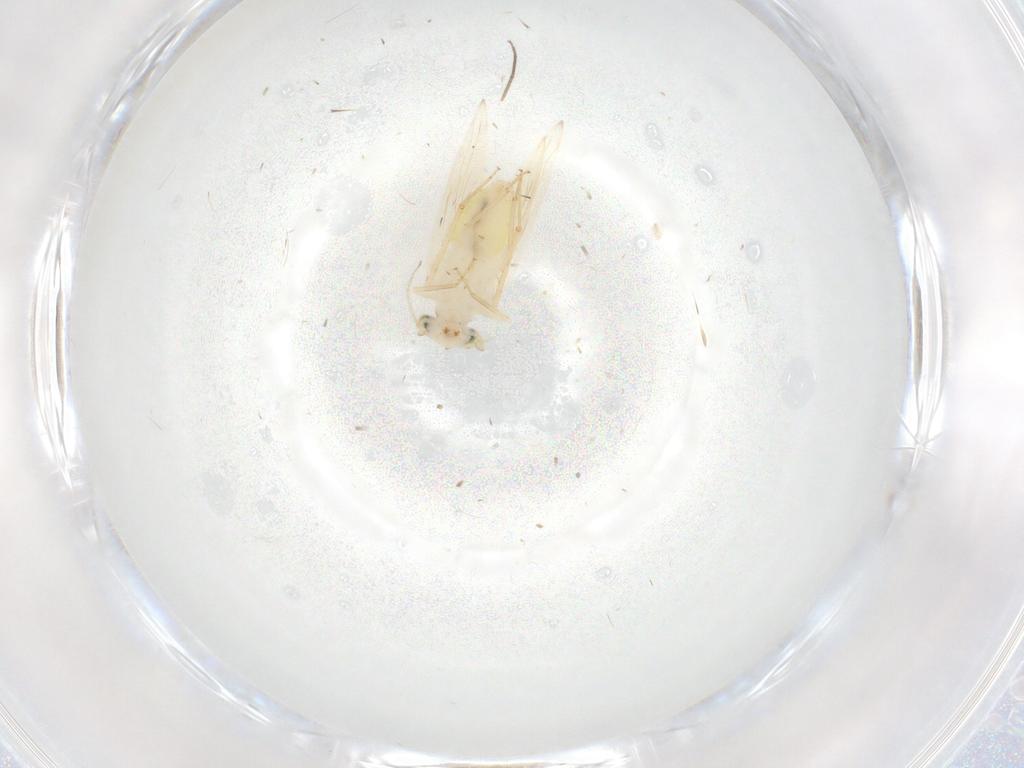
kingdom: Animalia
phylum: Arthropoda
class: Insecta
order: Psocodea
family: Lepidopsocidae
